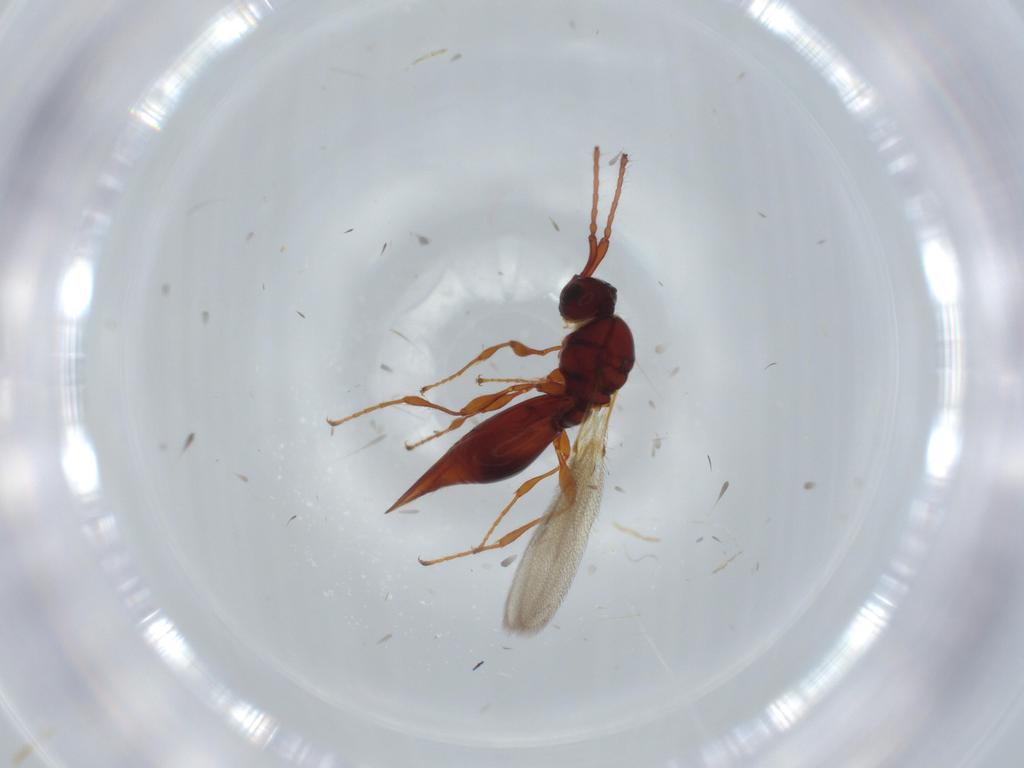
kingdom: Animalia
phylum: Arthropoda
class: Insecta
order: Hymenoptera
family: Diapriidae
